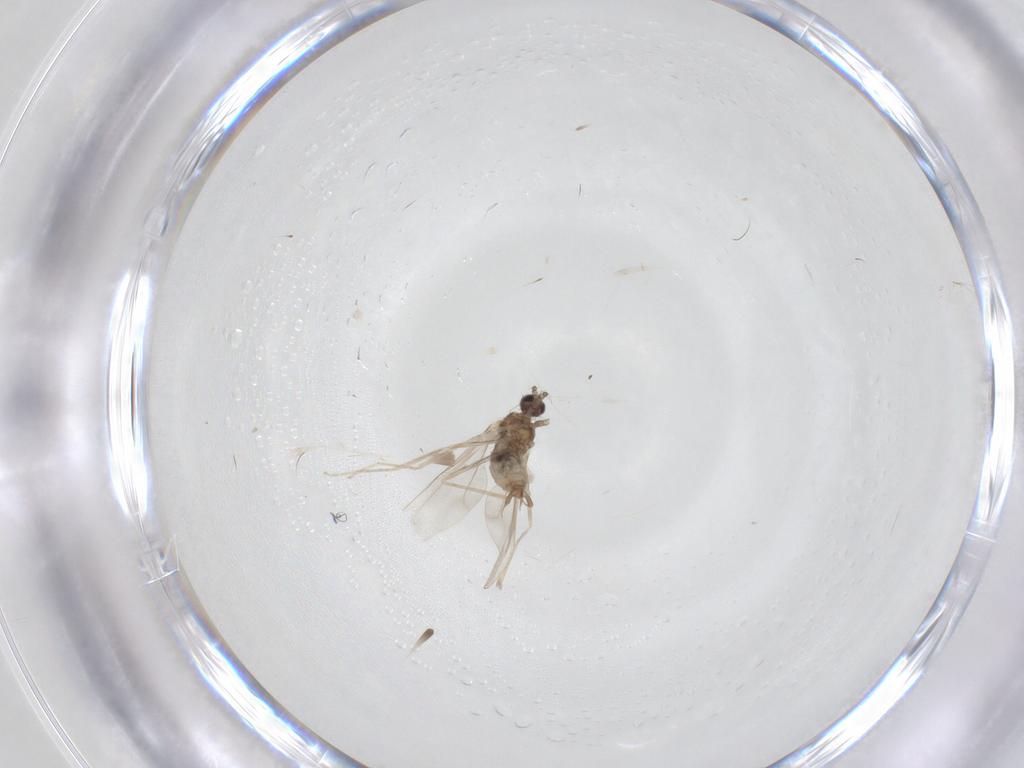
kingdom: Animalia
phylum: Arthropoda
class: Insecta
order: Diptera
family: Cecidomyiidae
